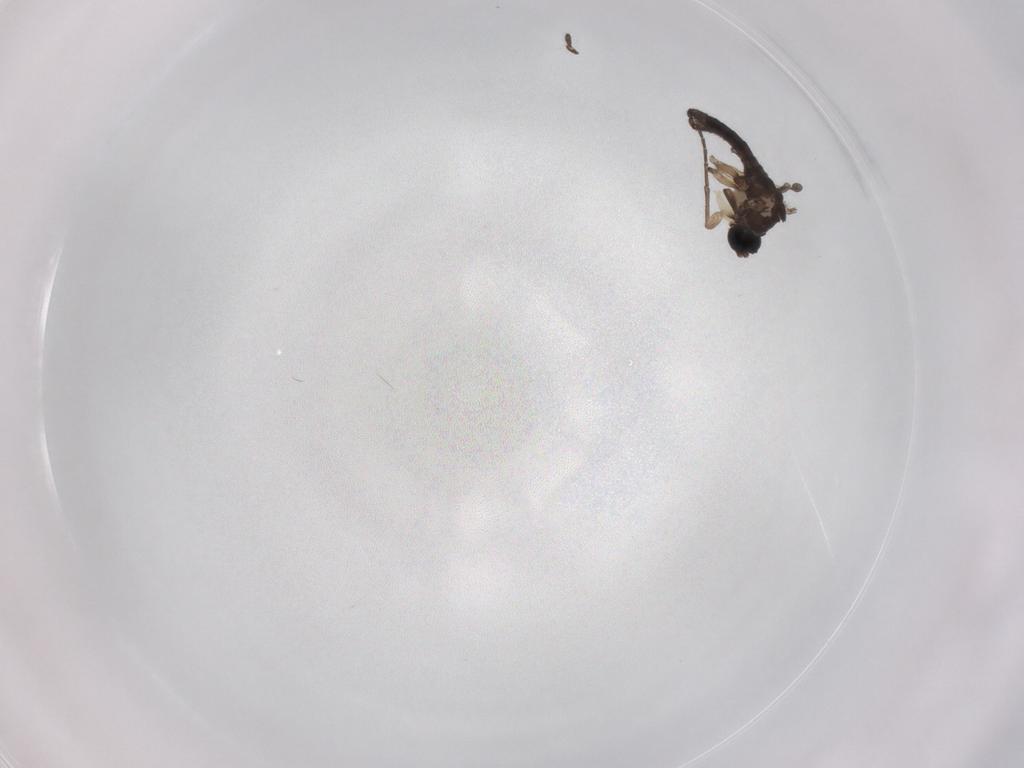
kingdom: Animalia
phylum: Arthropoda
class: Insecta
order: Diptera
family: Sciaridae
